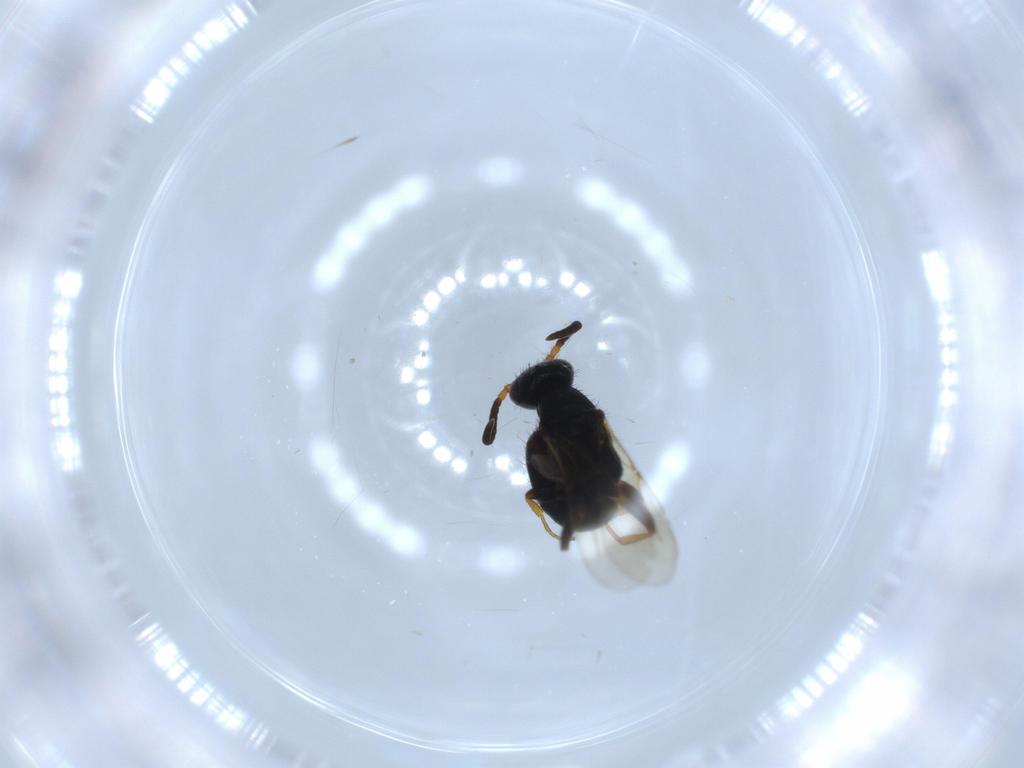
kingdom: Animalia
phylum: Arthropoda
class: Insecta
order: Hymenoptera
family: Bethylidae
